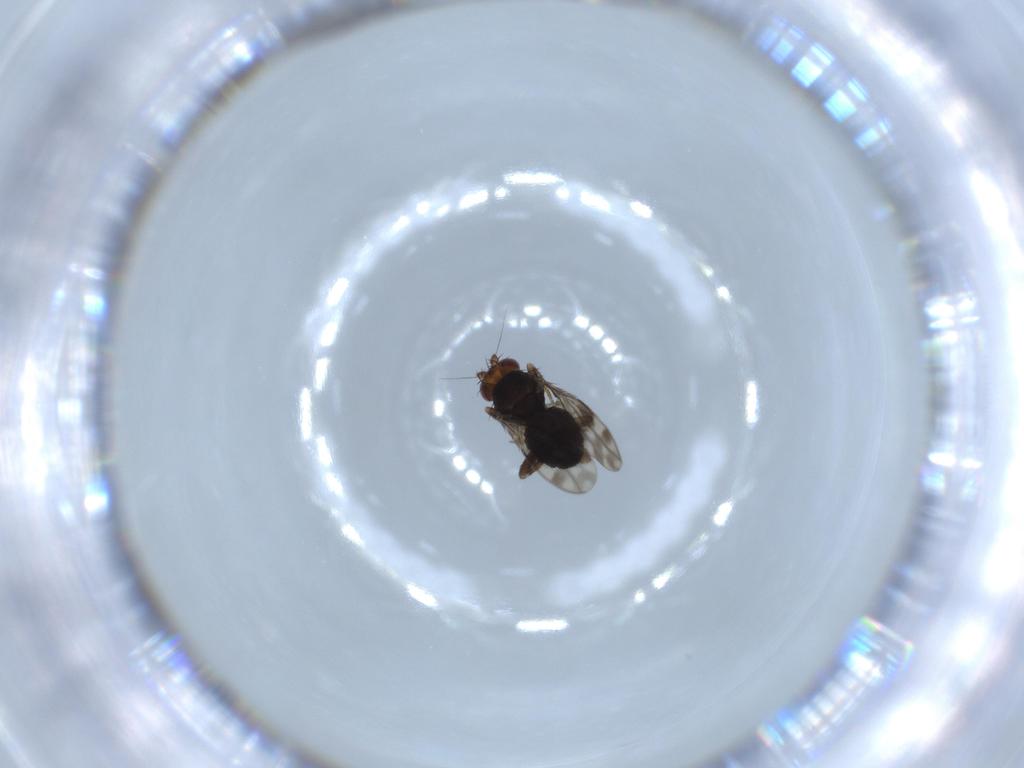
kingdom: Animalia
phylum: Arthropoda
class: Insecta
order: Diptera
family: Sphaeroceridae
